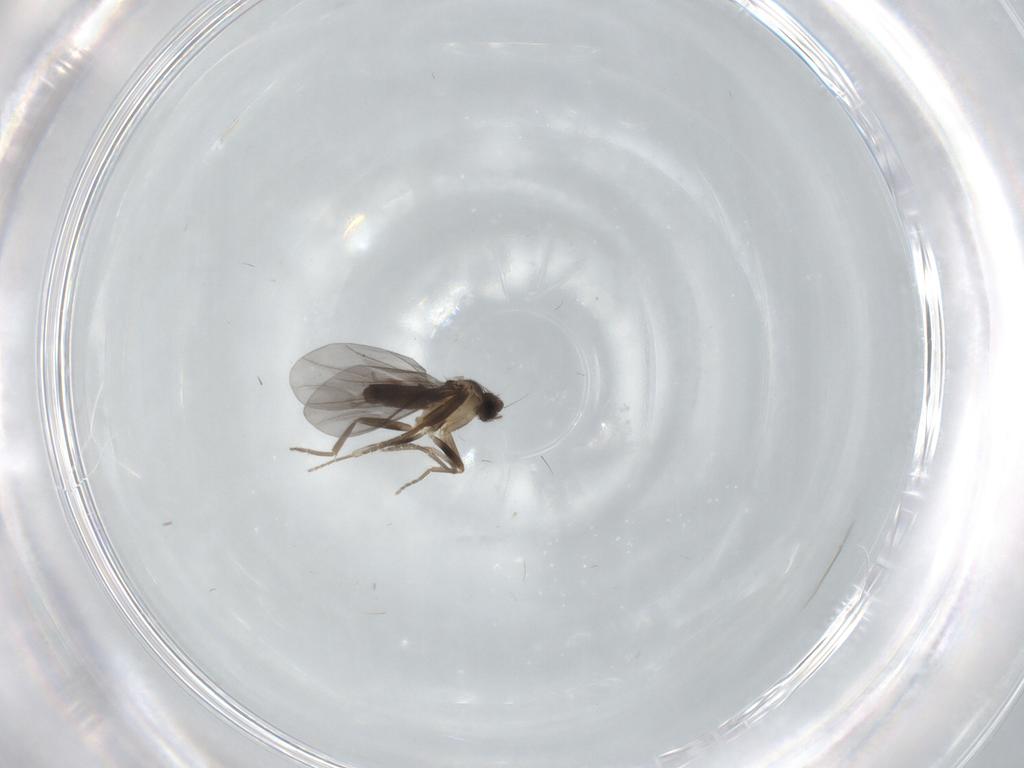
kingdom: Animalia
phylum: Arthropoda
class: Insecta
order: Diptera
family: Phoridae
